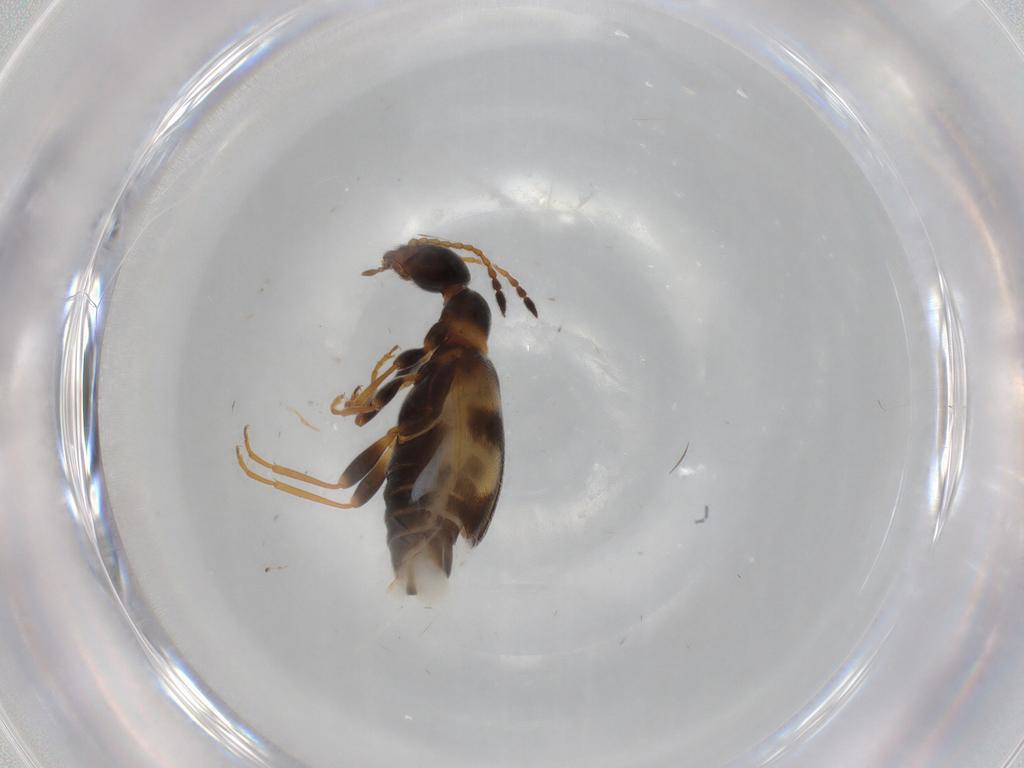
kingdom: Animalia
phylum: Arthropoda
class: Insecta
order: Coleoptera
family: Anthicidae
